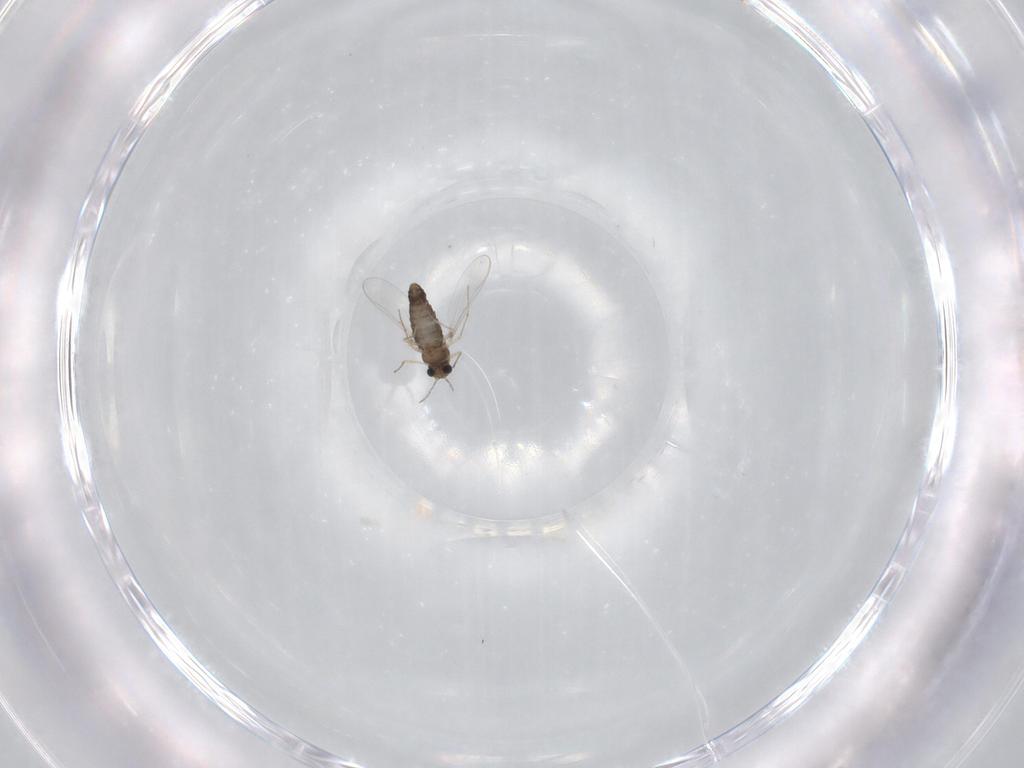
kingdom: Animalia
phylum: Arthropoda
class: Insecta
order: Diptera
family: Chironomidae
